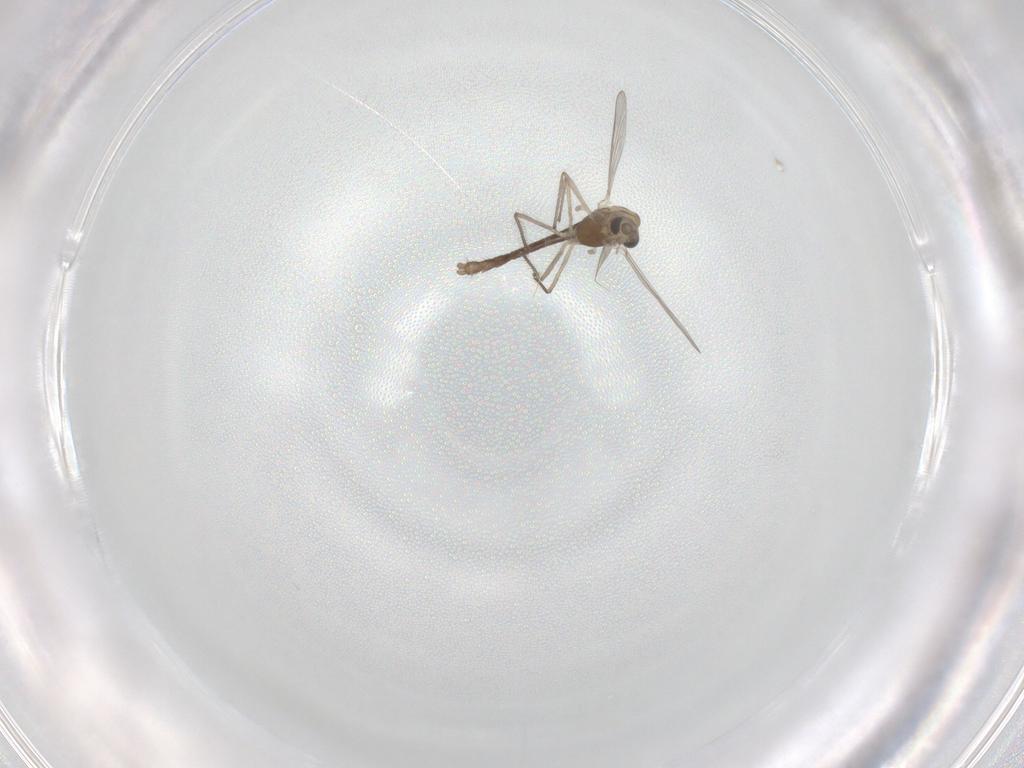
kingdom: Animalia
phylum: Arthropoda
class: Insecta
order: Diptera
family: Chironomidae
